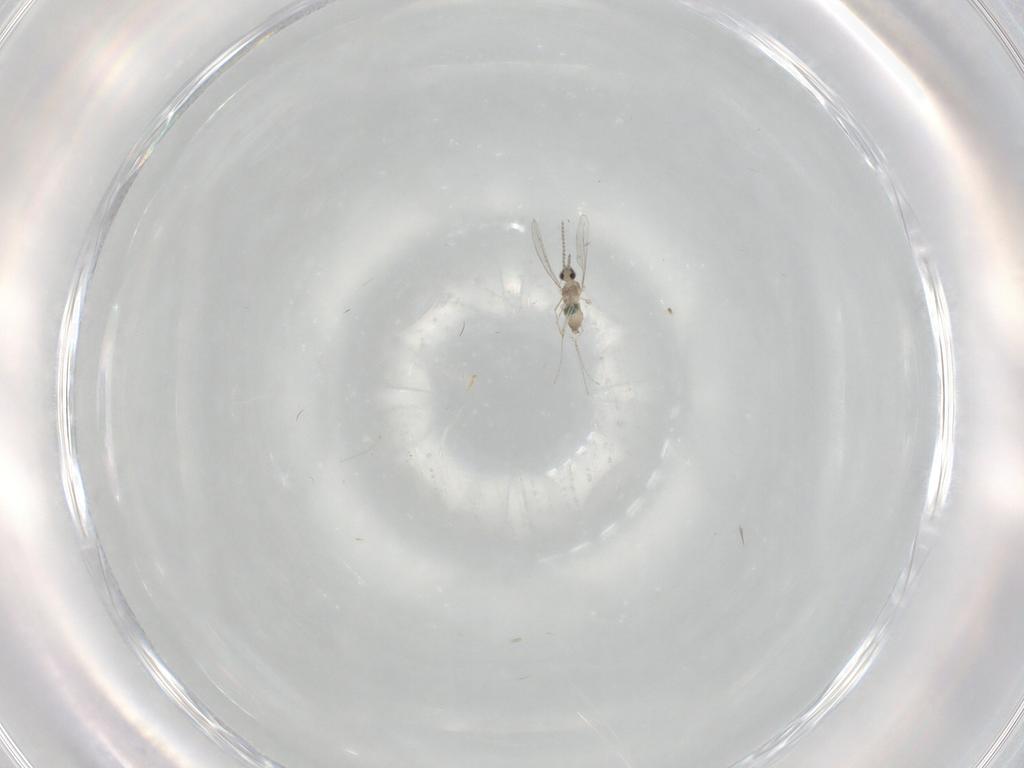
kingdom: Animalia
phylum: Arthropoda
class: Insecta
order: Diptera
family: Cecidomyiidae
